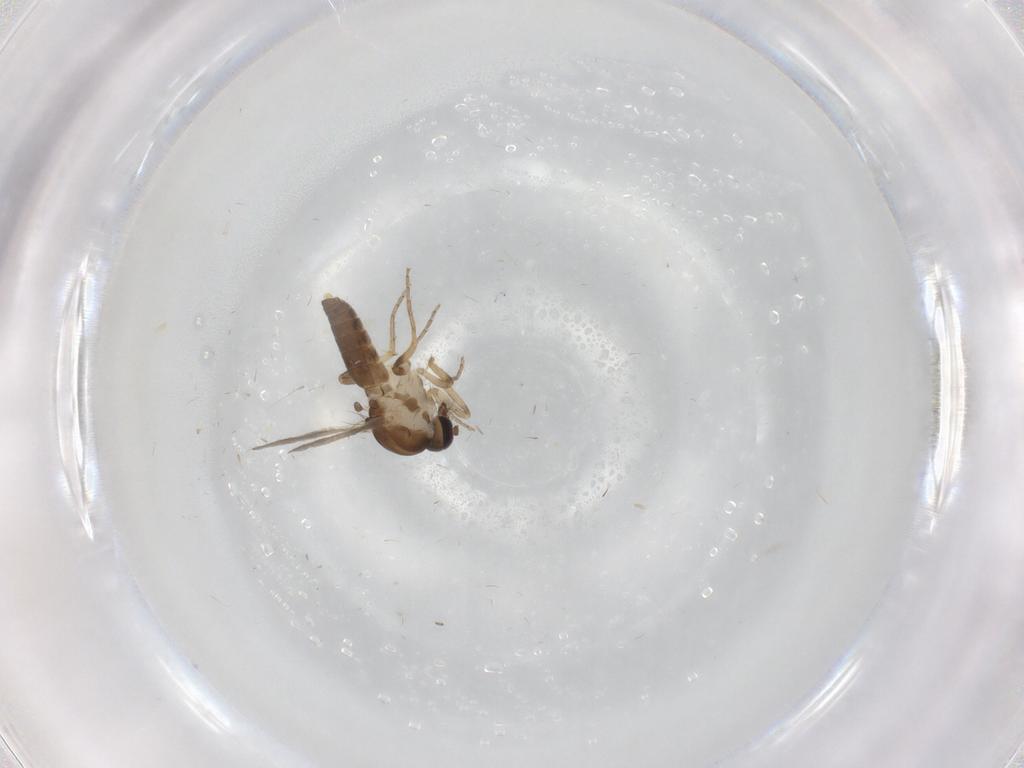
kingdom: Animalia
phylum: Arthropoda
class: Insecta
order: Diptera
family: Ceratopogonidae
